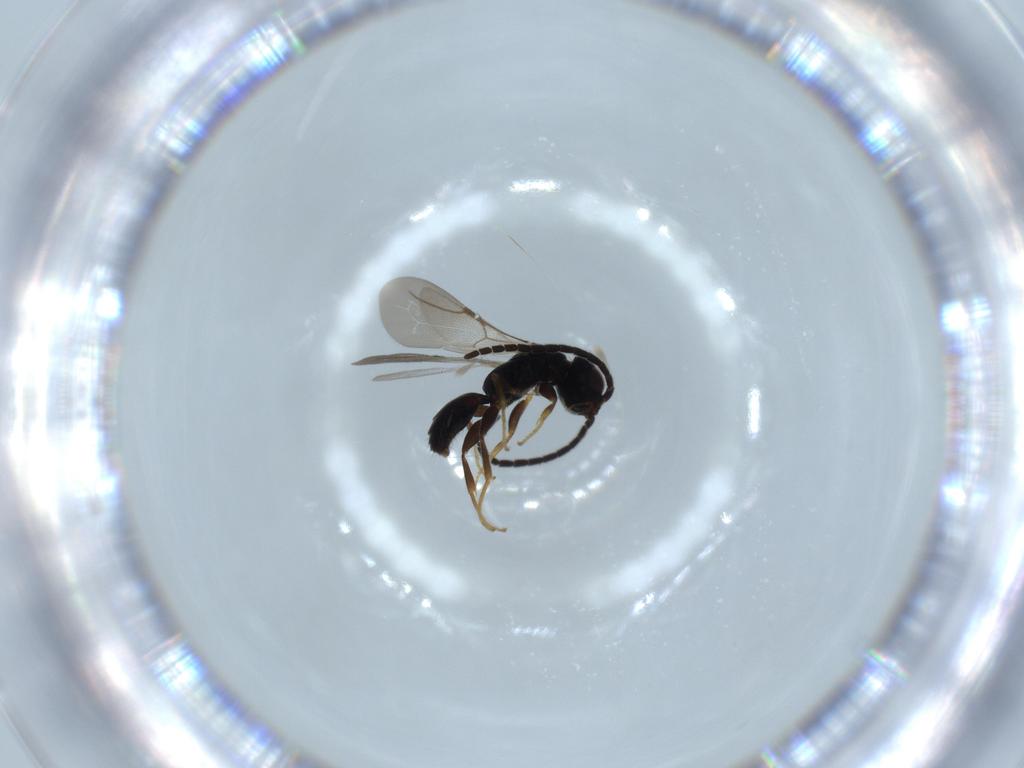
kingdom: Animalia
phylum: Arthropoda
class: Insecta
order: Hymenoptera
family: Bethylidae
